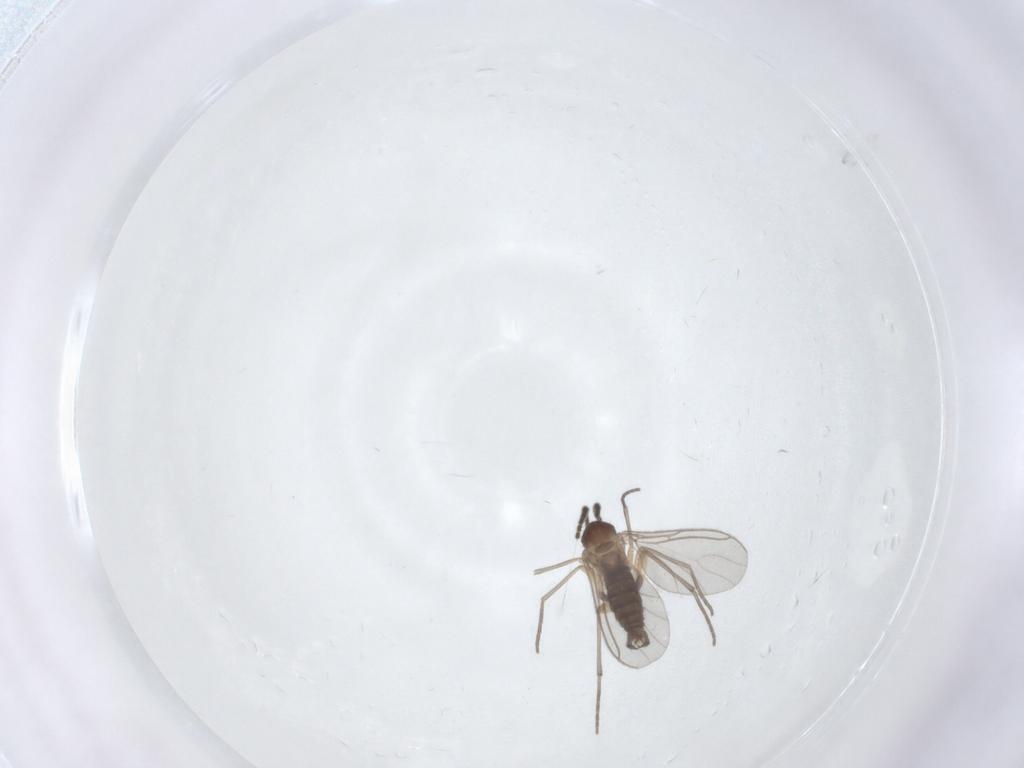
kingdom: Animalia
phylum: Arthropoda
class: Insecta
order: Diptera
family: Sciaridae
